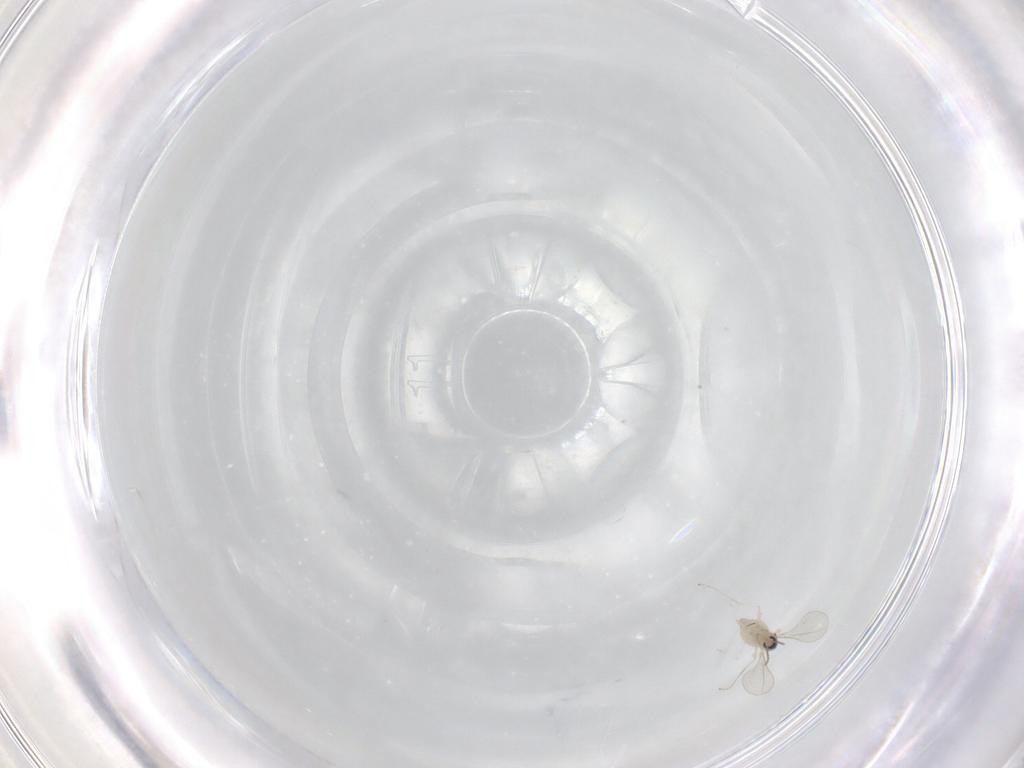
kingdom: Animalia
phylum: Arthropoda
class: Insecta
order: Diptera
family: Cecidomyiidae
